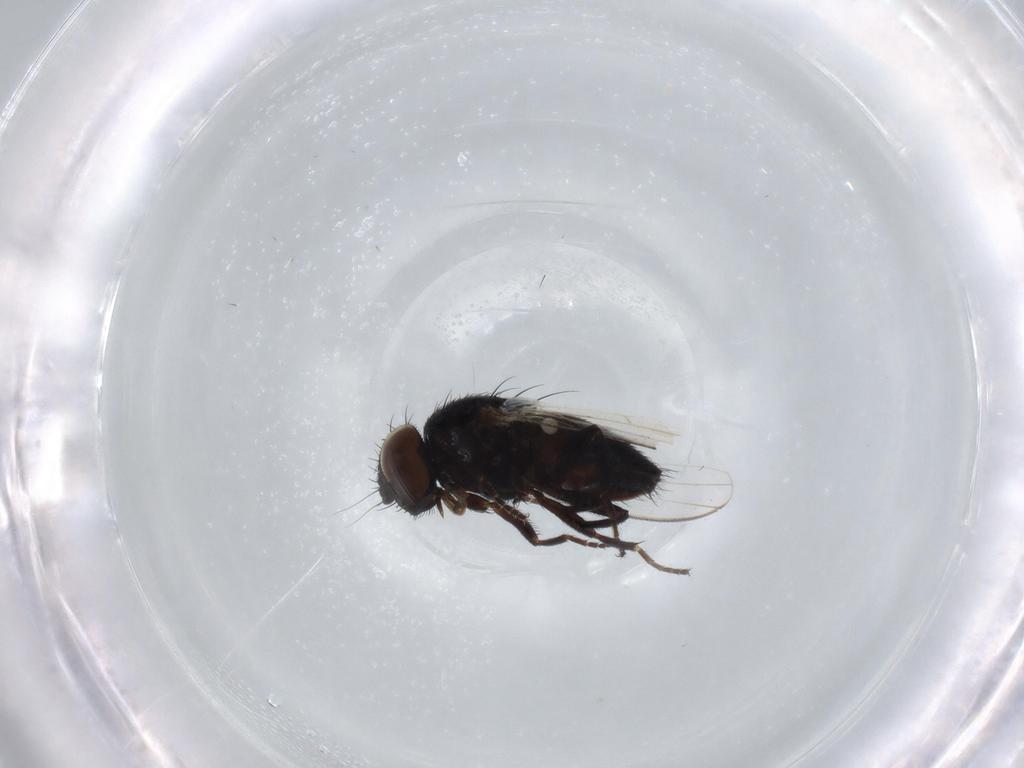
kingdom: Animalia
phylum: Arthropoda
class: Insecta
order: Diptera
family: Milichiidae
